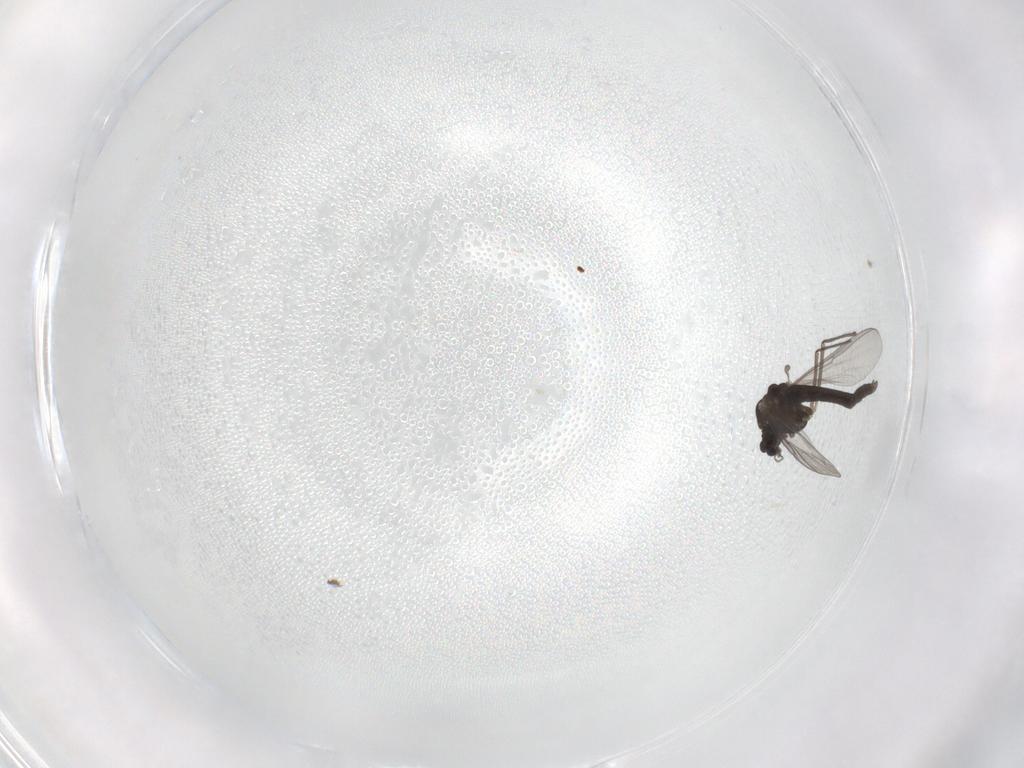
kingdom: Animalia
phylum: Arthropoda
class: Insecta
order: Diptera
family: Chironomidae
